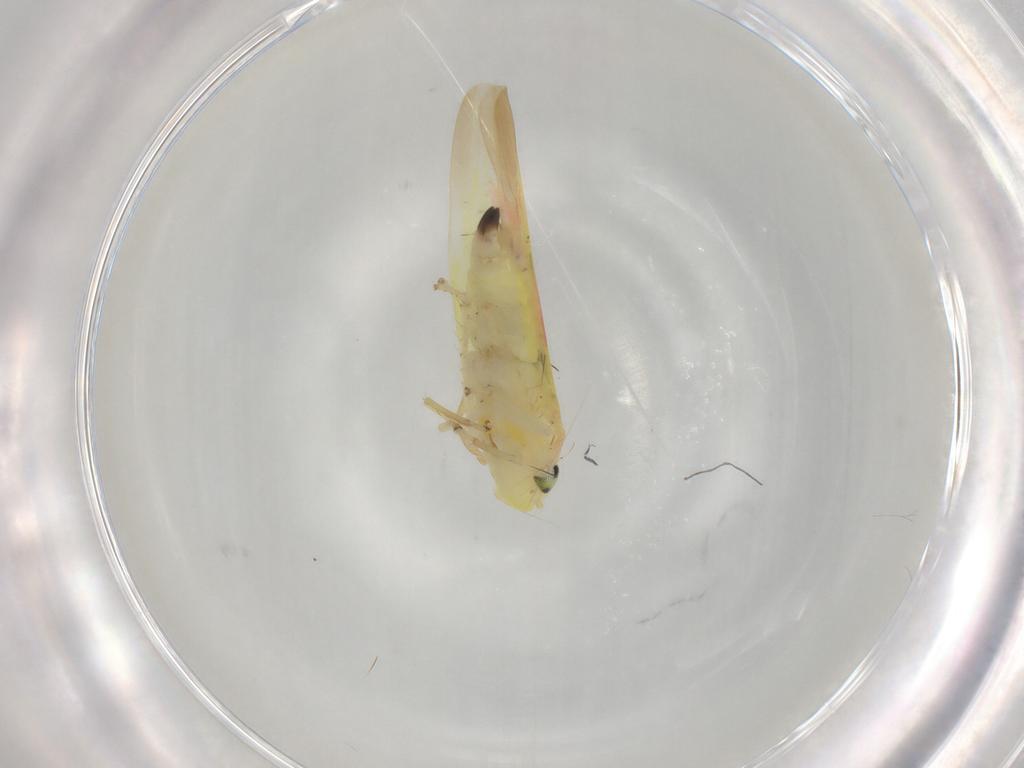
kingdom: Animalia
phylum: Arthropoda
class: Insecta
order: Hemiptera
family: Cicadellidae
